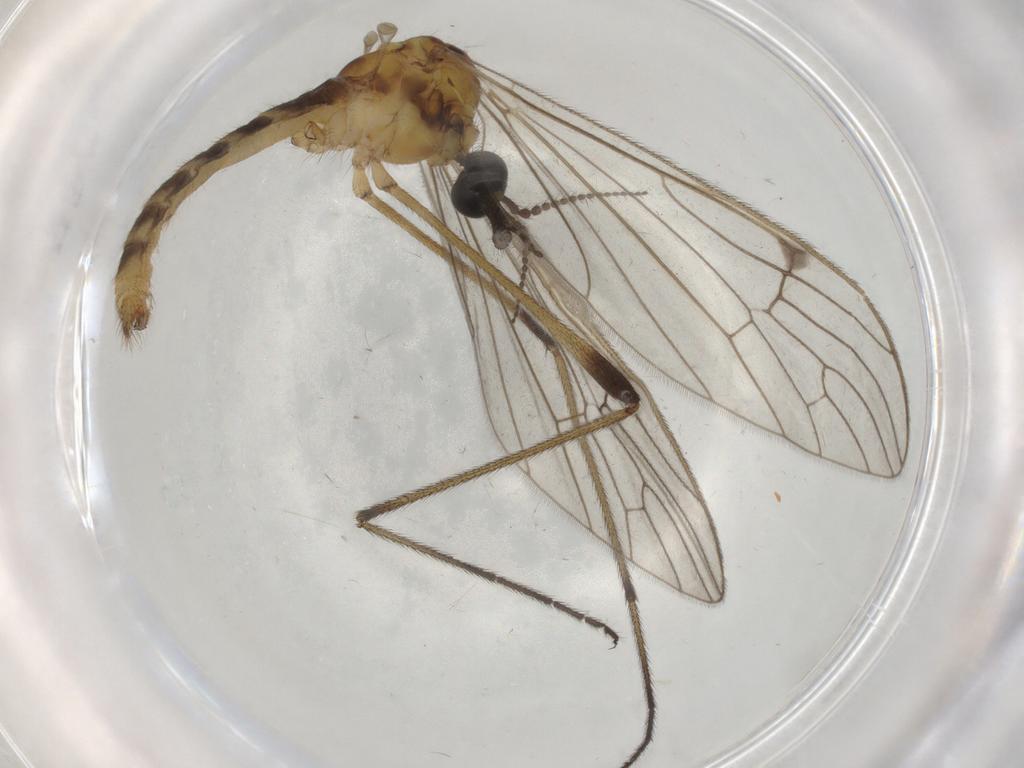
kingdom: Animalia
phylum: Arthropoda
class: Insecta
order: Diptera
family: Limoniidae
